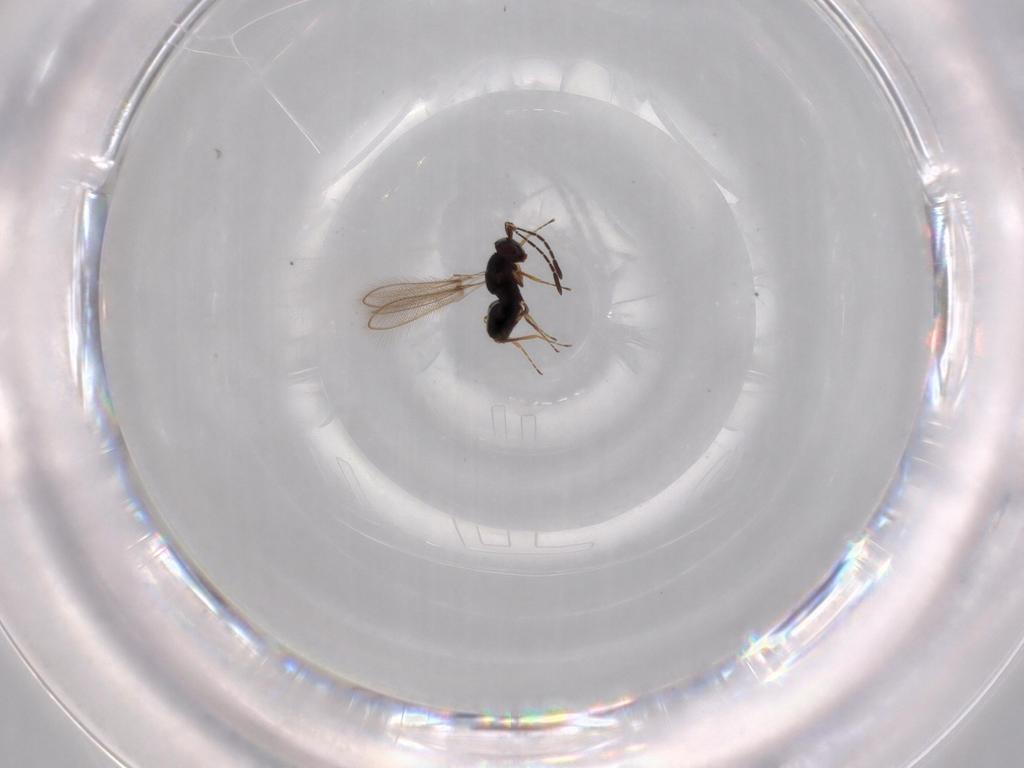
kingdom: Animalia
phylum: Arthropoda
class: Insecta
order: Hymenoptera
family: Mymaridae
